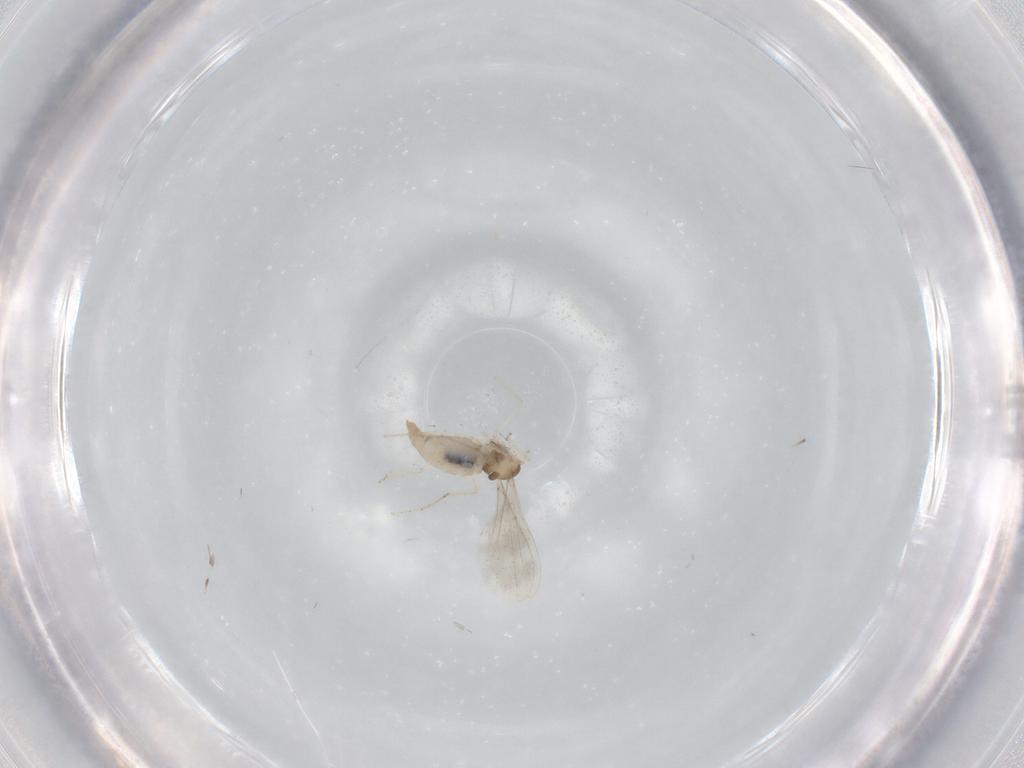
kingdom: Animalia
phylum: Arthropoda
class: Insecta
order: Diptera
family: Cecidomyiidae
